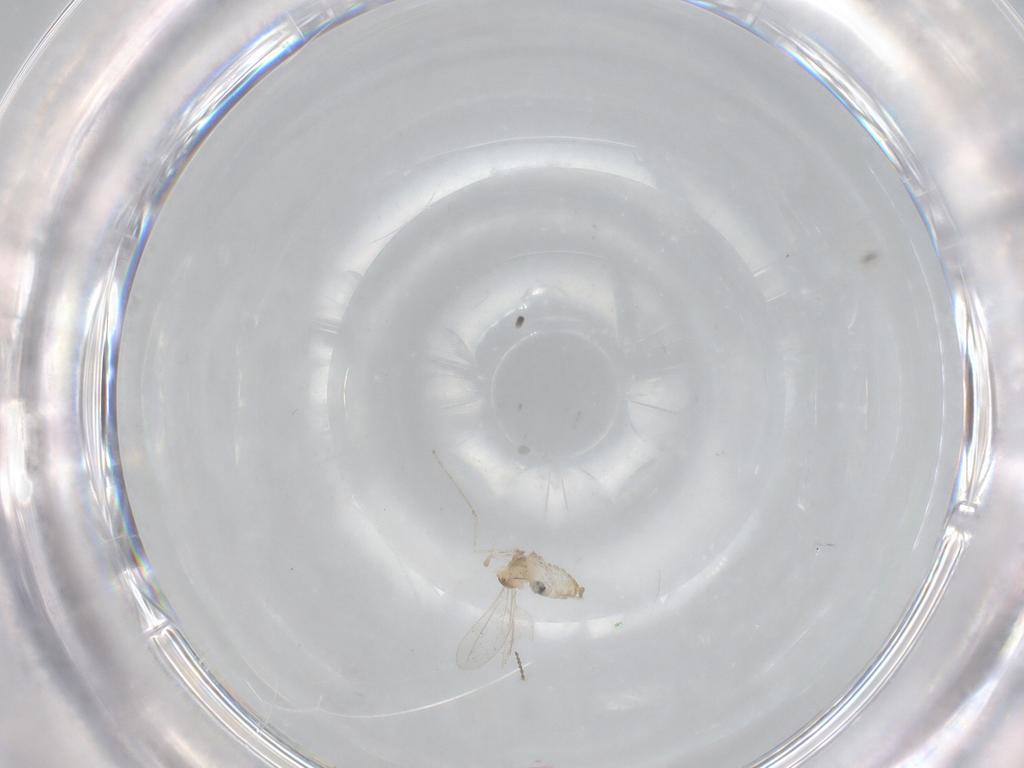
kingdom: Animalia
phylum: Arthropoda
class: Insecta
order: Diptera
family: Cecidomyiidae
